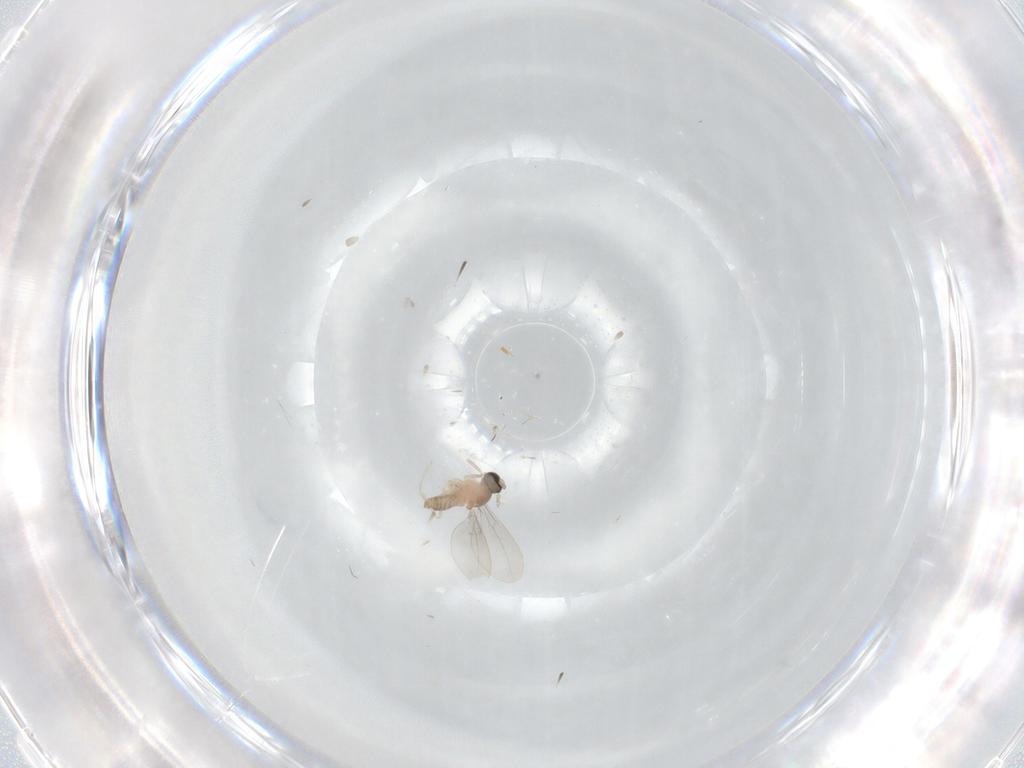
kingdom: Animalia
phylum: Arthropoda
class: Insecta
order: Diptera
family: Cecidomyiidae
